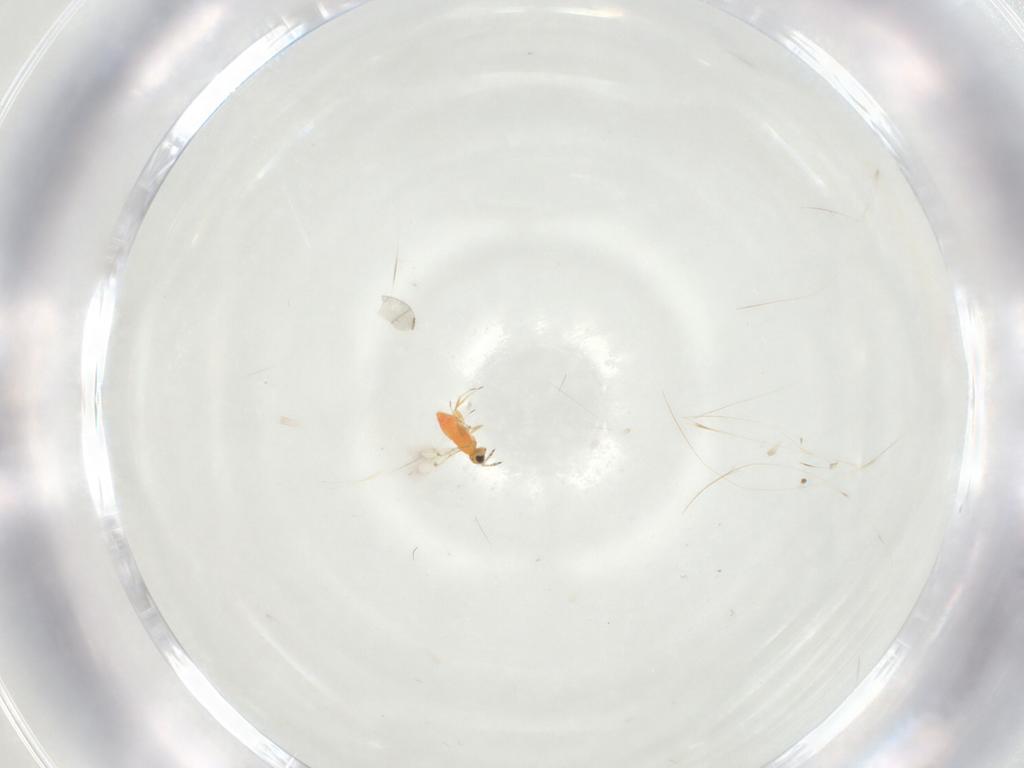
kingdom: Animalia
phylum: Arthropoda
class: Insecta
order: Hymenoptera
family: Trichogrammatidae
